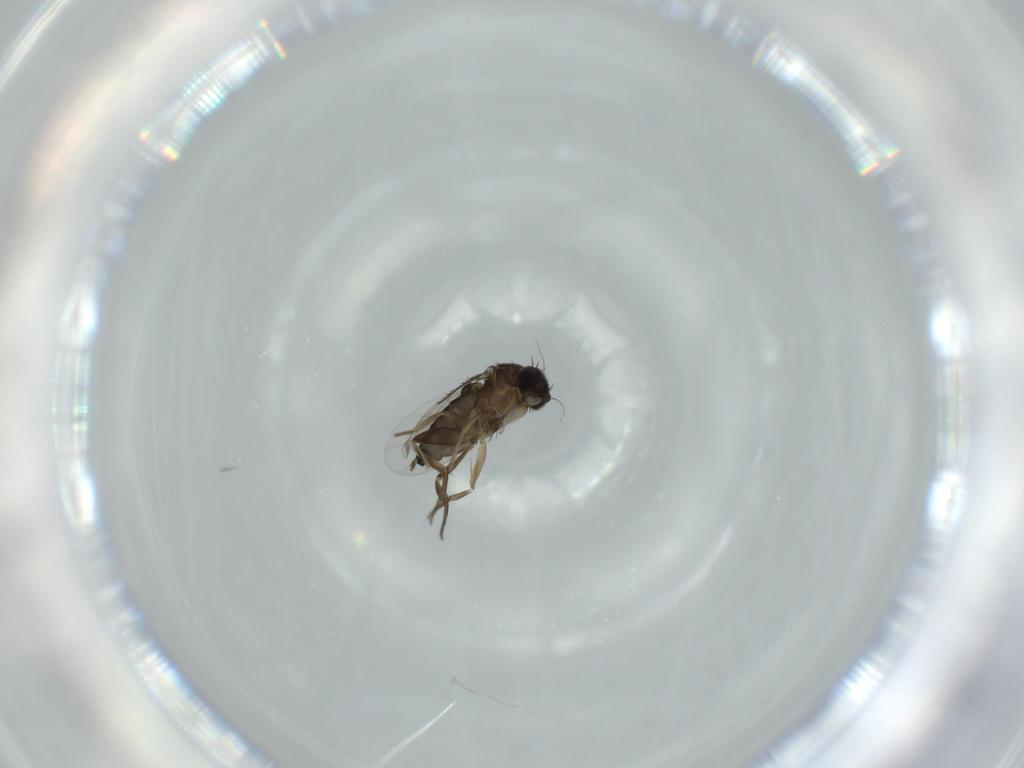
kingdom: Animalia
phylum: Arthropoda
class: Insecta
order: Diptera
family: Phoridae
